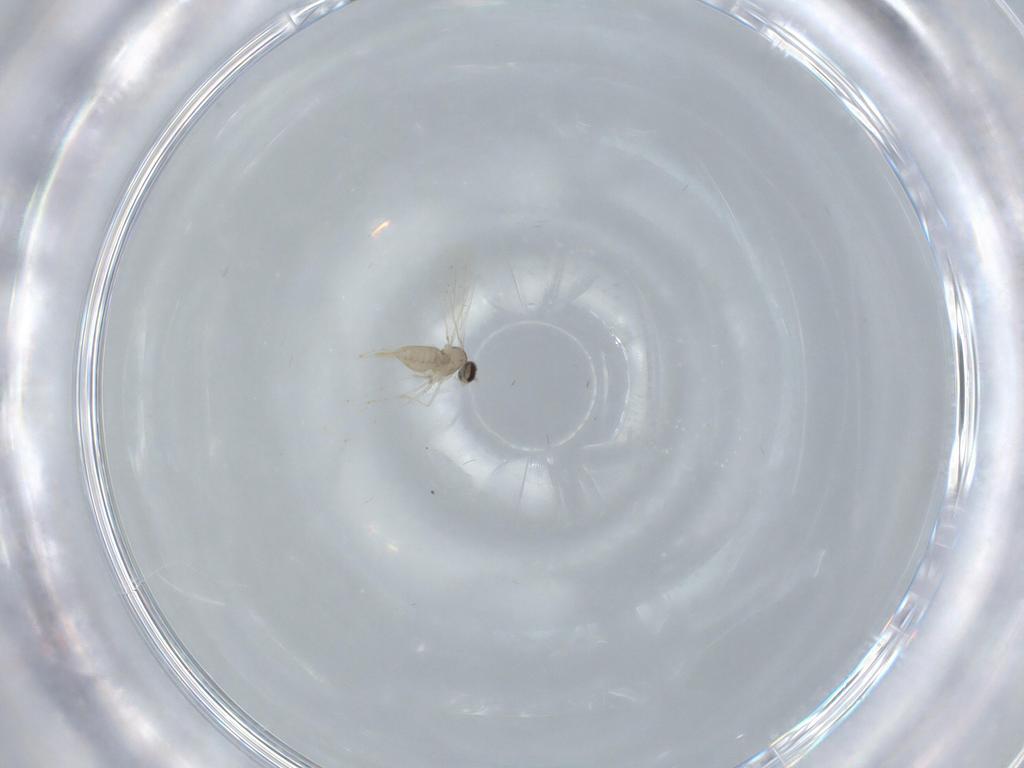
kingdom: Animalia
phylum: Arthropoda
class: Insecta
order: Diptera
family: Cecidomyiidae
